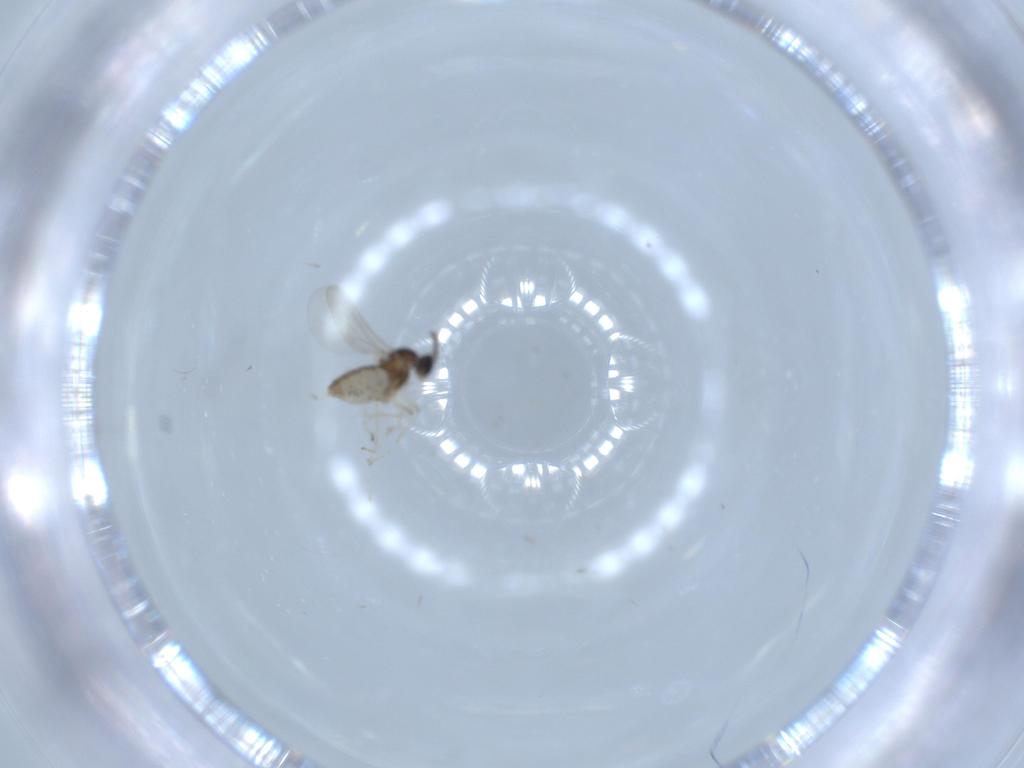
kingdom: Animalia
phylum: Arthropoda
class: Insecta
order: Diptera
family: Cecidomyiidae
